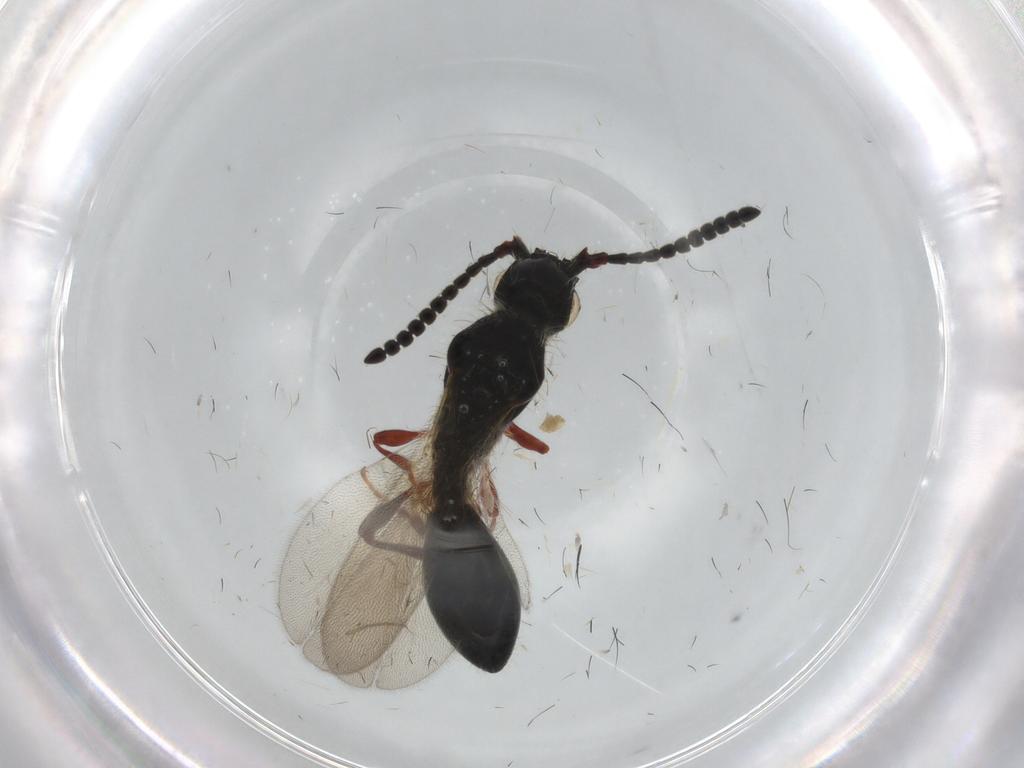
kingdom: Animalia
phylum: Arthropoda
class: Insecta
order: Hymenoptera
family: Formicidae
